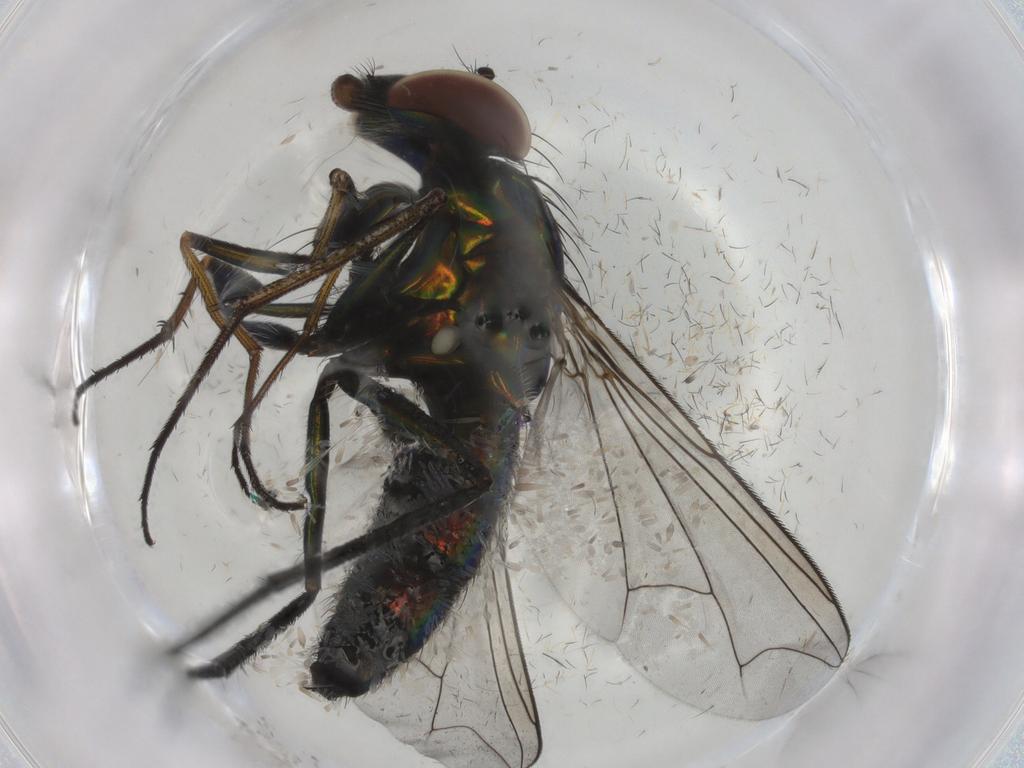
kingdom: Animalia
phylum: Arthropoda
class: Insecta
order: Diptera
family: Dolichopodidae
